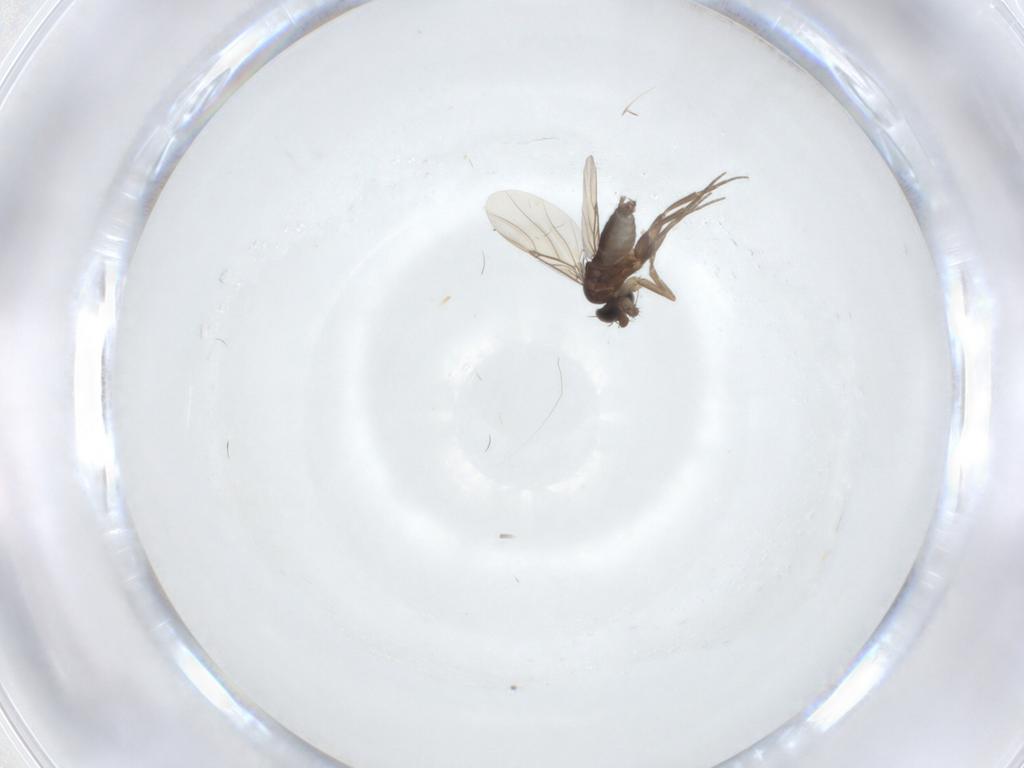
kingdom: Animalia
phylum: Arthropoda
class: Insecta
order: Diptera
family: Phoridae
